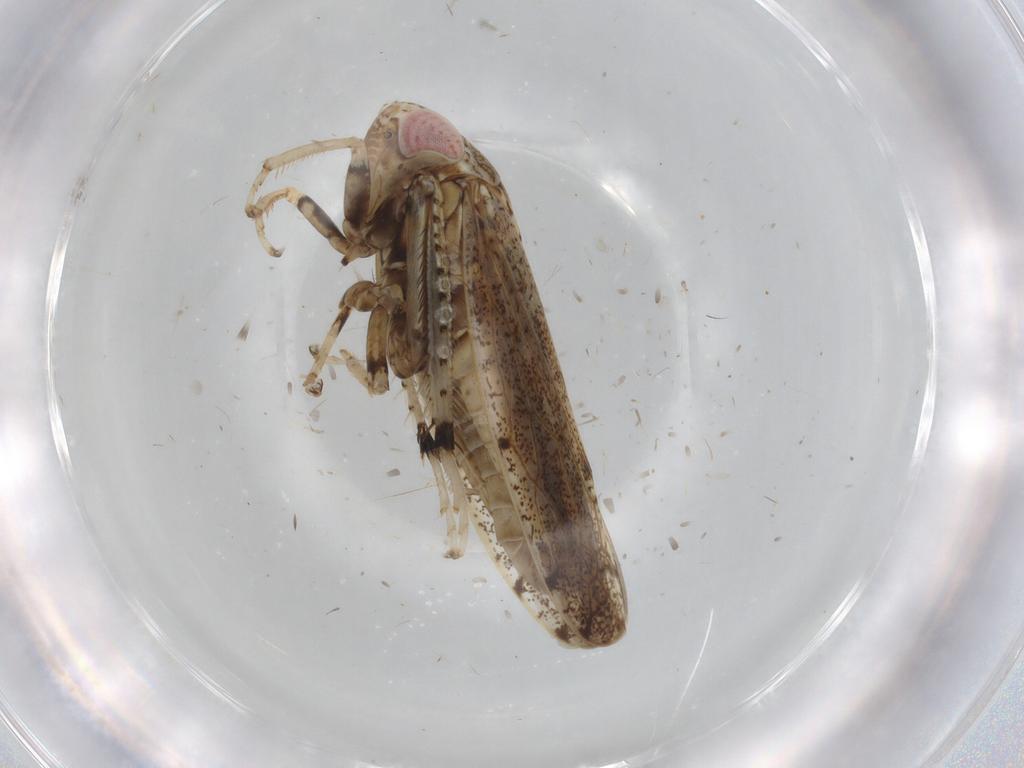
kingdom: Animalia
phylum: Arthropoda
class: Insecta
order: Hemiptera
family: Cicadellidae
